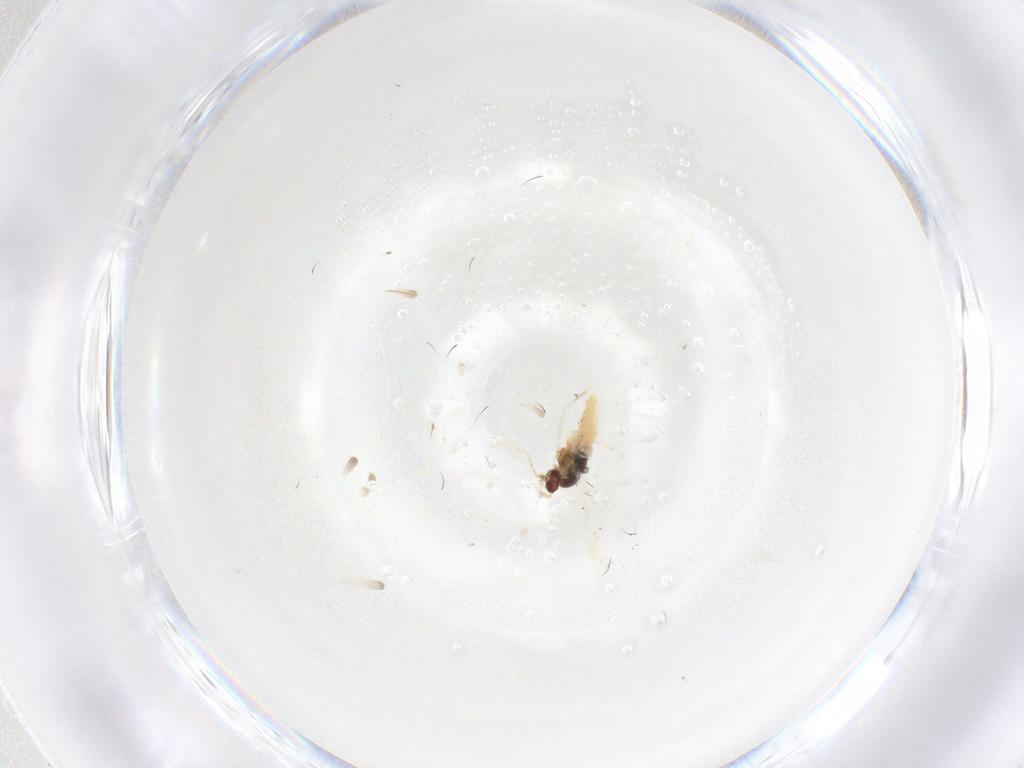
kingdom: Animalia
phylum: Arthropoda
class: Insecta
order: Diptera
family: Cecidomyiidae
